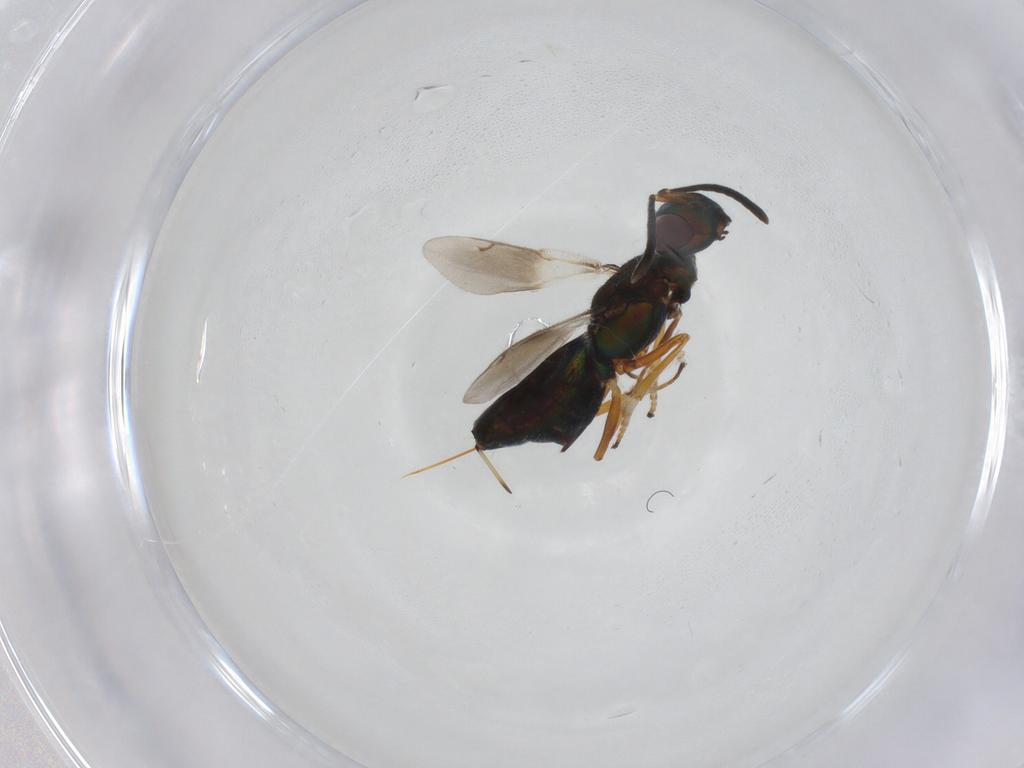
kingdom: Animalia
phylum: Arthropoda
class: Insecta
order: Hymenoptera
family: Eupelmidae
